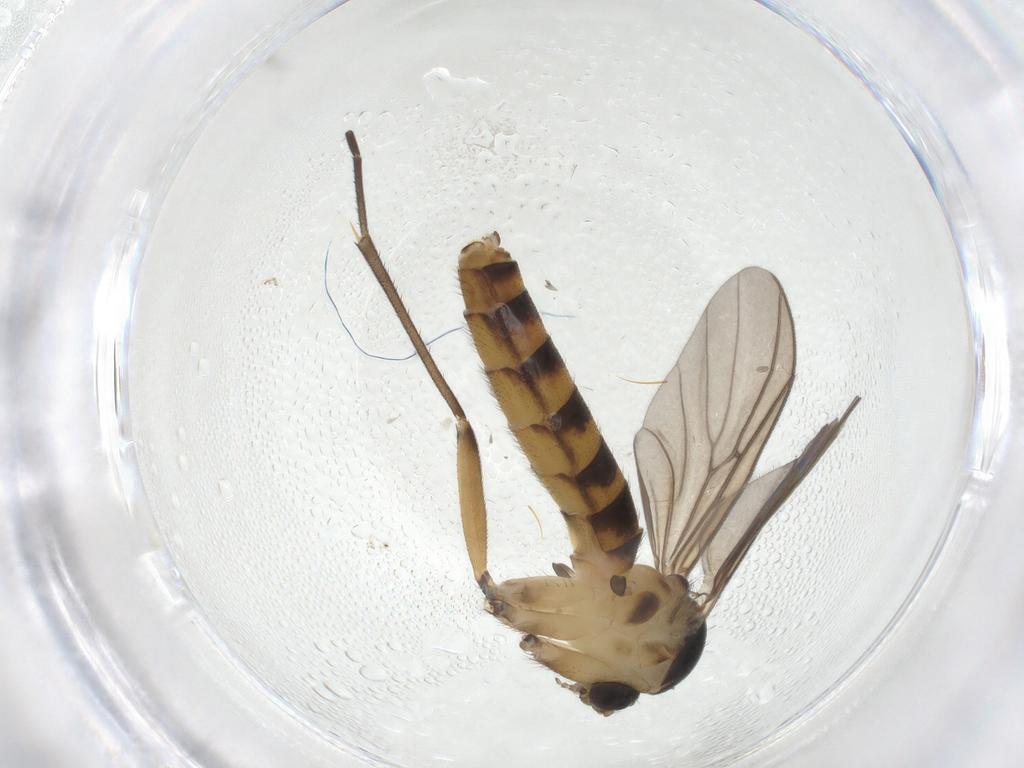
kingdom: Animalia
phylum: Arthropoda
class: Insecta
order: Diptera
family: Mycetophilidae
